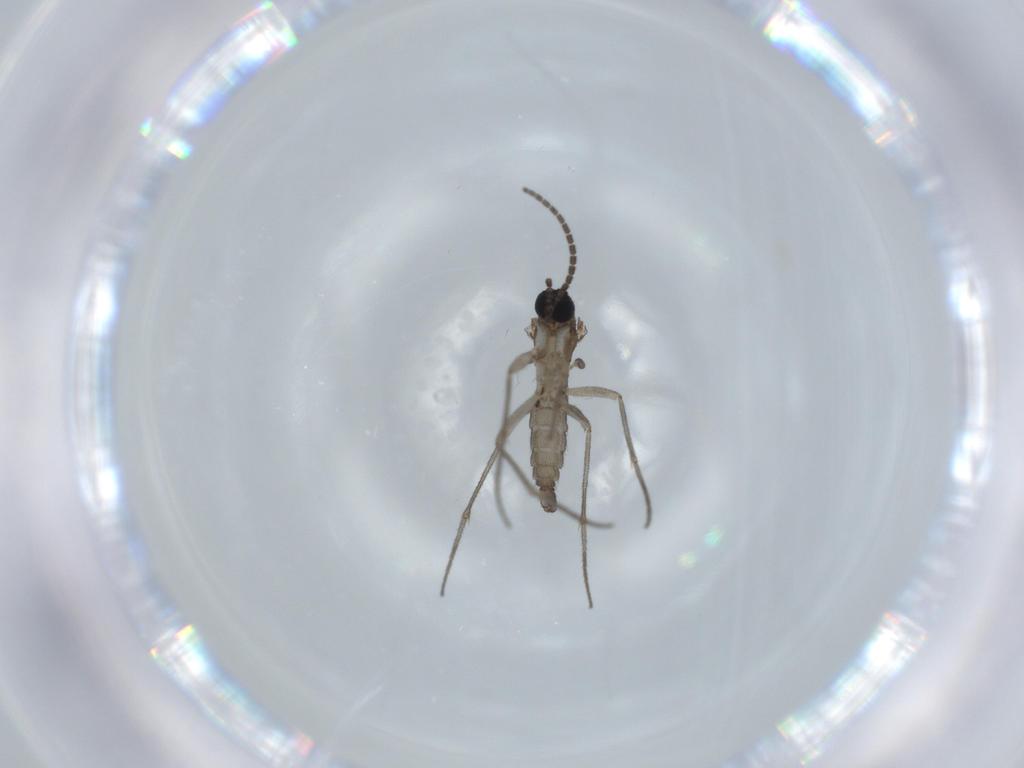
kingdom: Animalia
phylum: Arthropoda
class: Insecta
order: Diptera
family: Sciaridae
